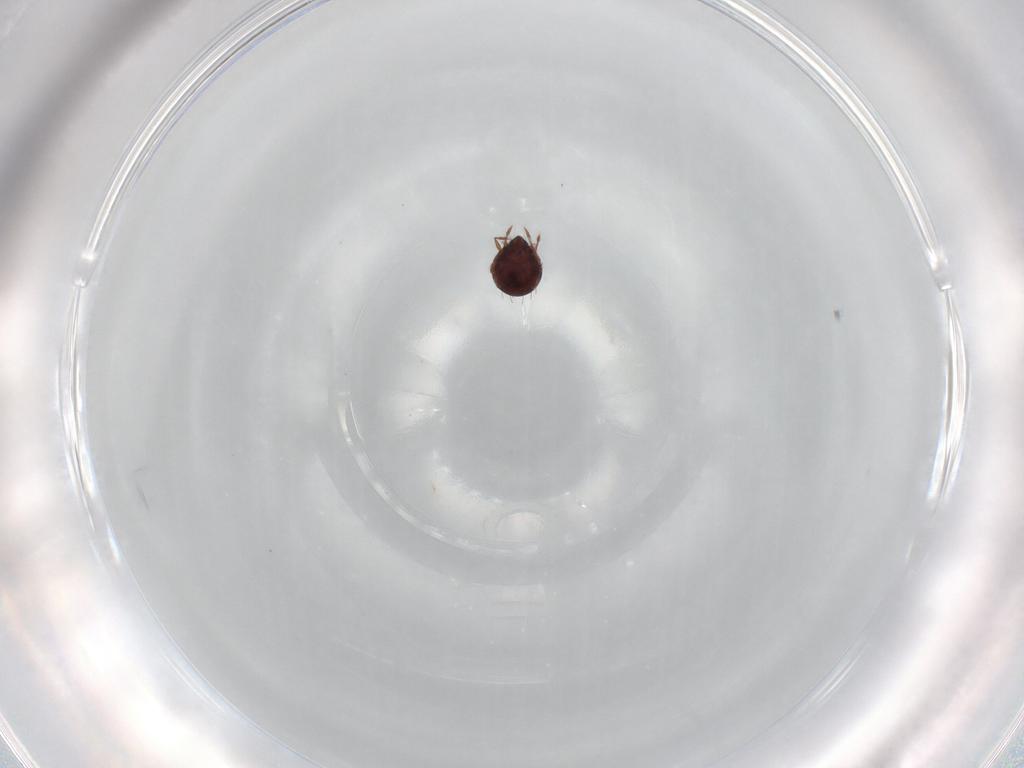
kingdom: Animalia
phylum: Arthropoda
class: Arachnida
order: Sarcoptiformes
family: Caloppiidae
